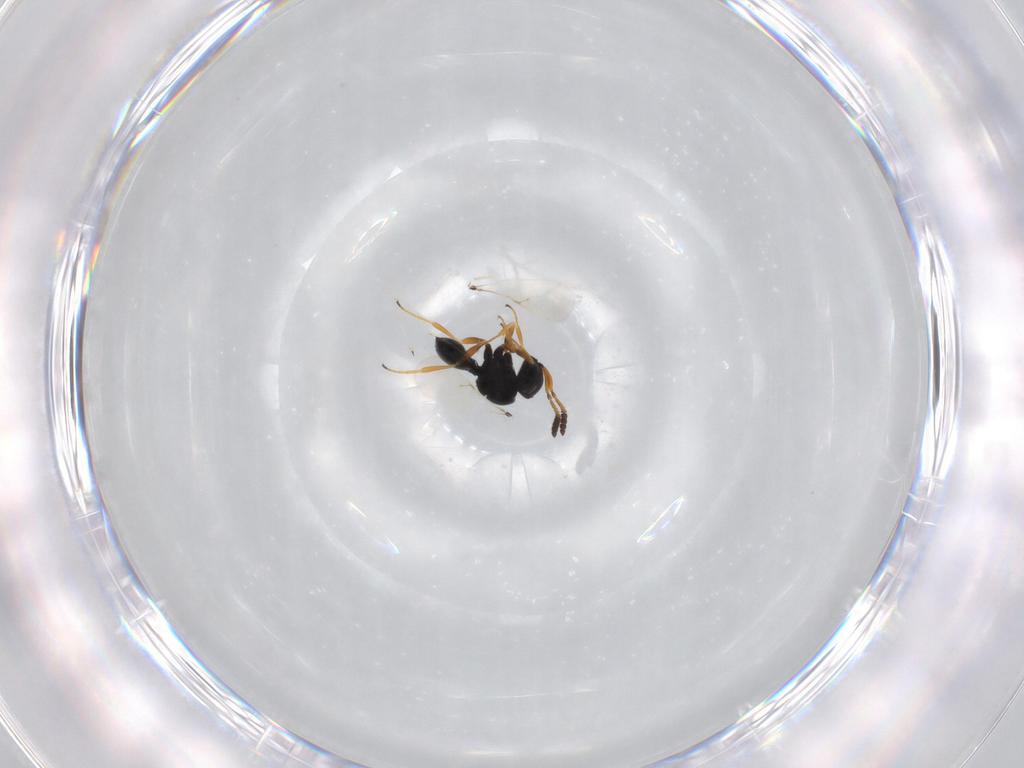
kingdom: Animalia
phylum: Arthropoda
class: Insecta
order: Hymenoptera
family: Scelionidae
